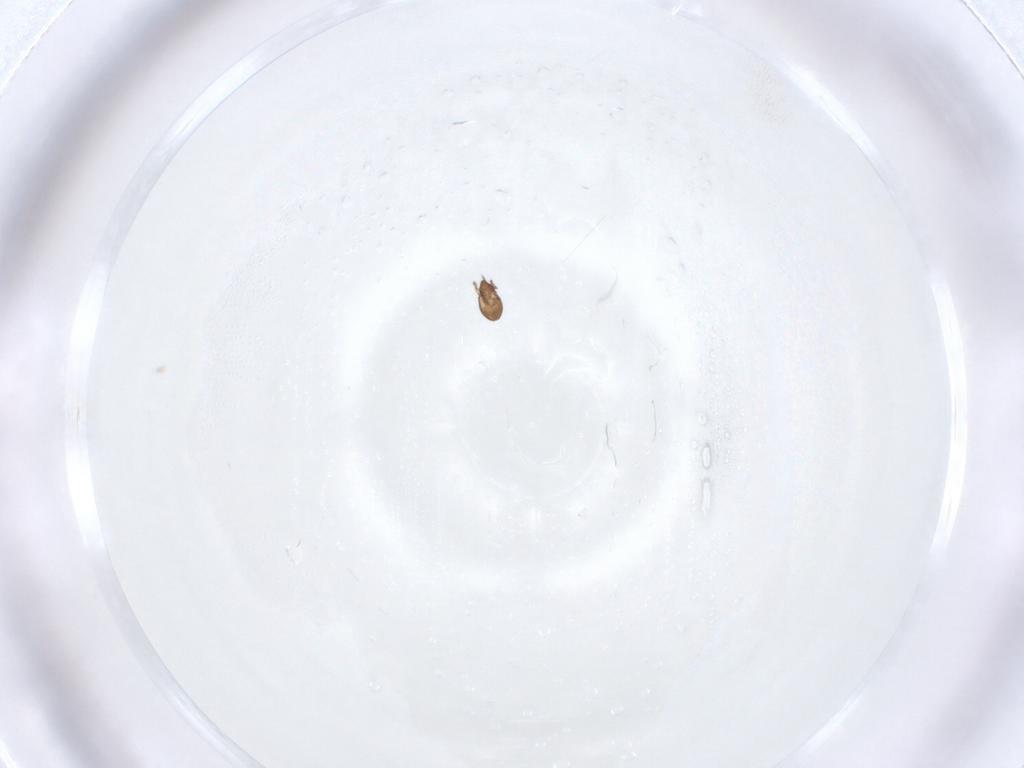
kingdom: Animalia
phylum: Arthropoda
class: Arachnida
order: Sarcoptiformes
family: Dendroeremaeidae
